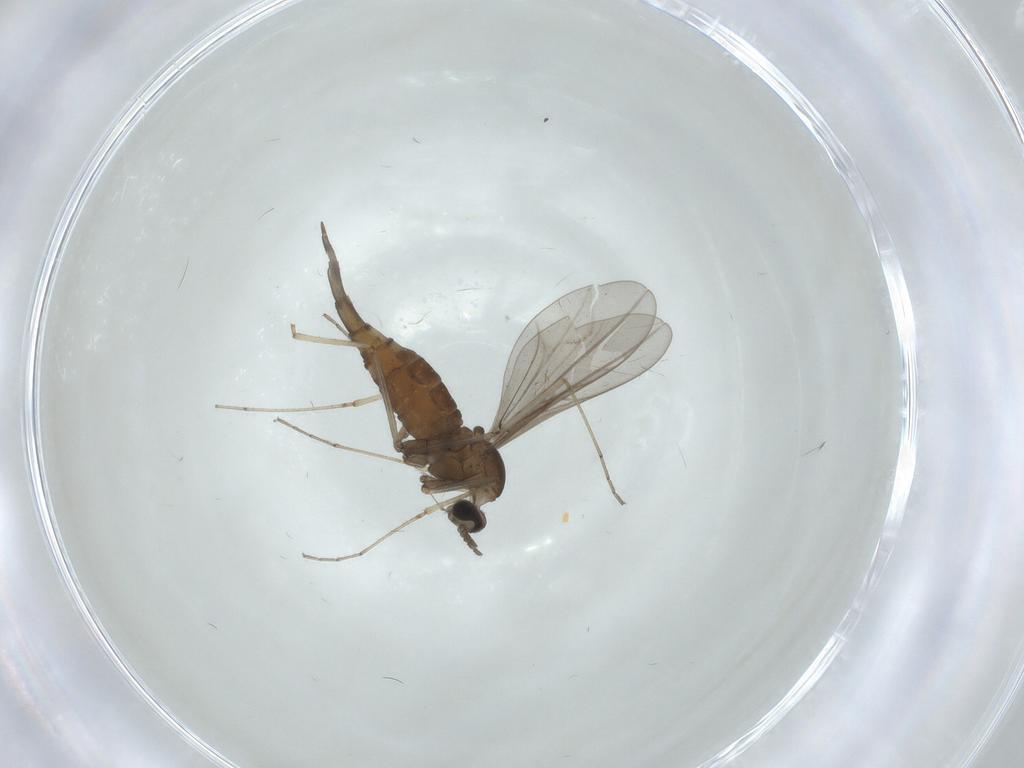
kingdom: Animalia
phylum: Arthropoda
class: Insecta
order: Diptera
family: Cecidomyiidae
